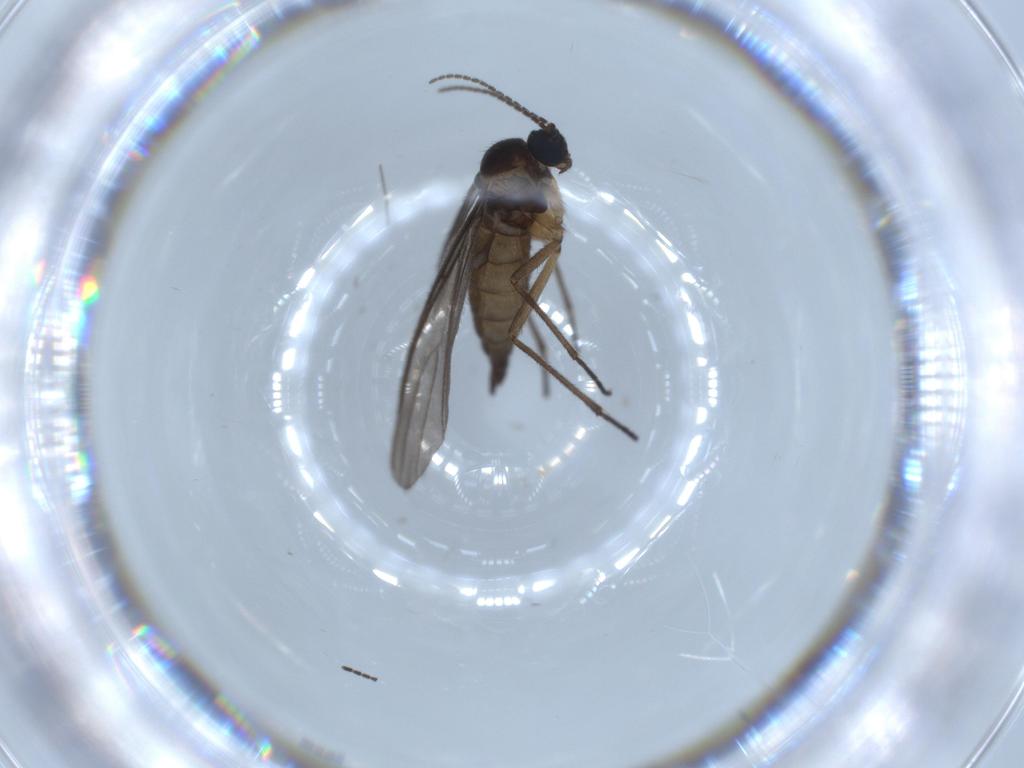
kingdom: Animalia
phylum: Arthropoda
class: Insecta
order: Diptera
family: Sciaridae
